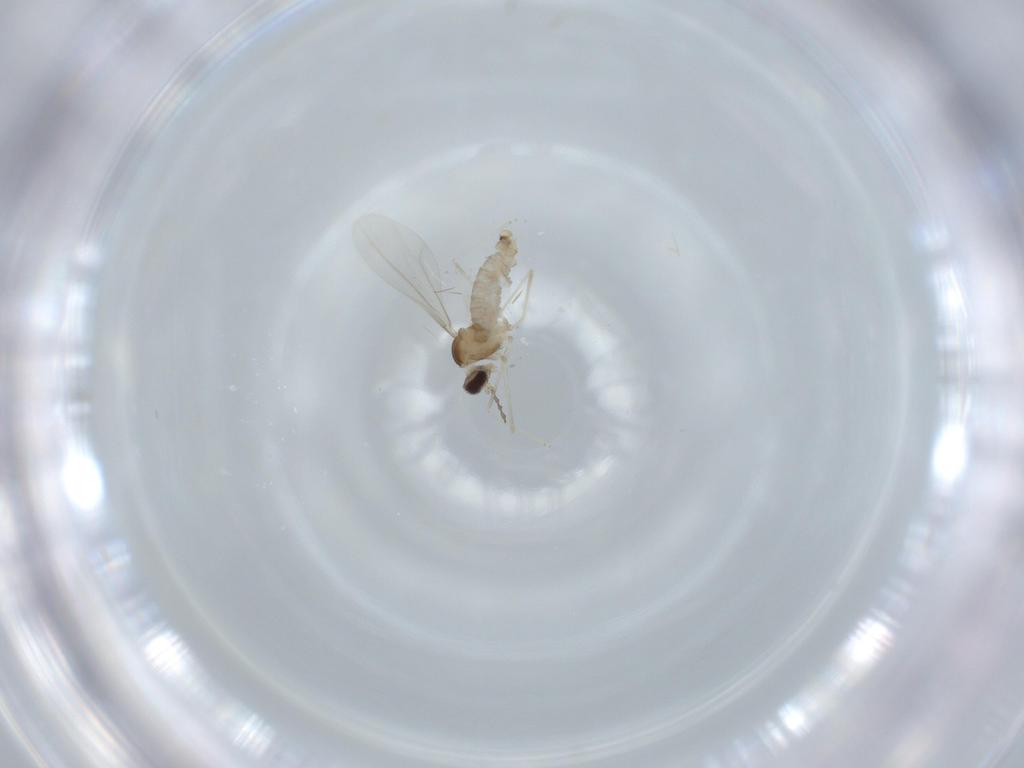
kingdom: Animalia
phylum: Arthropoda
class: Insecta
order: Diptera
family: Cecidomyiidae
